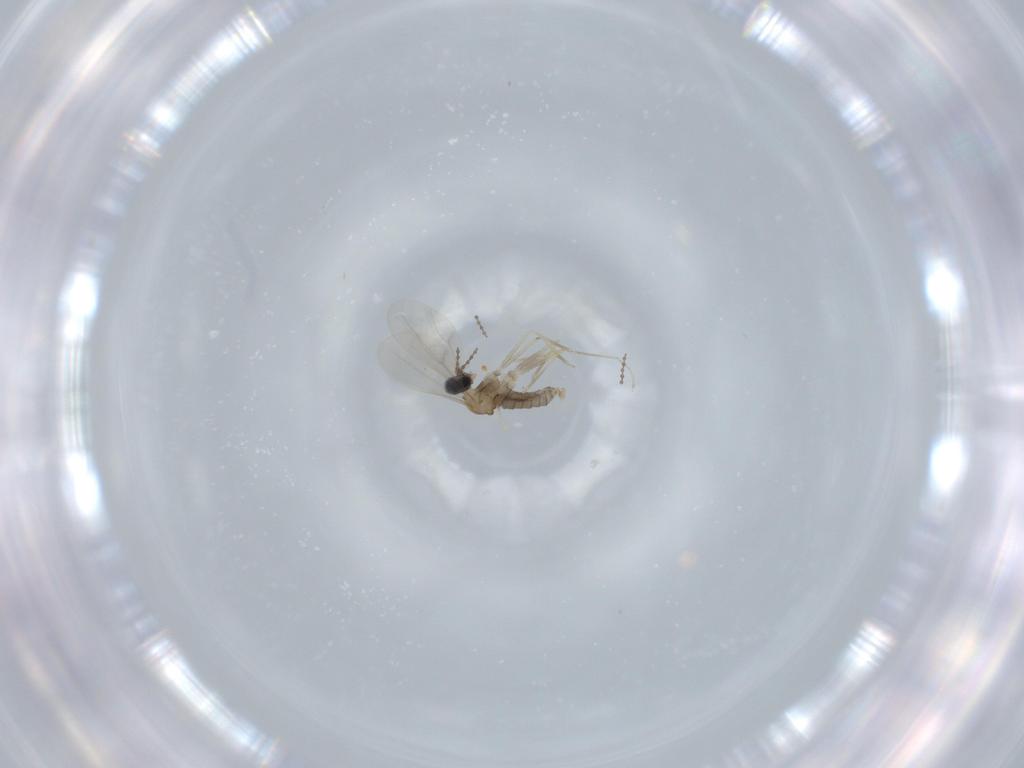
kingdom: Animalia
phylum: Arthropoda
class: Insecta
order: Diptera
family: Cecidomyiidae
